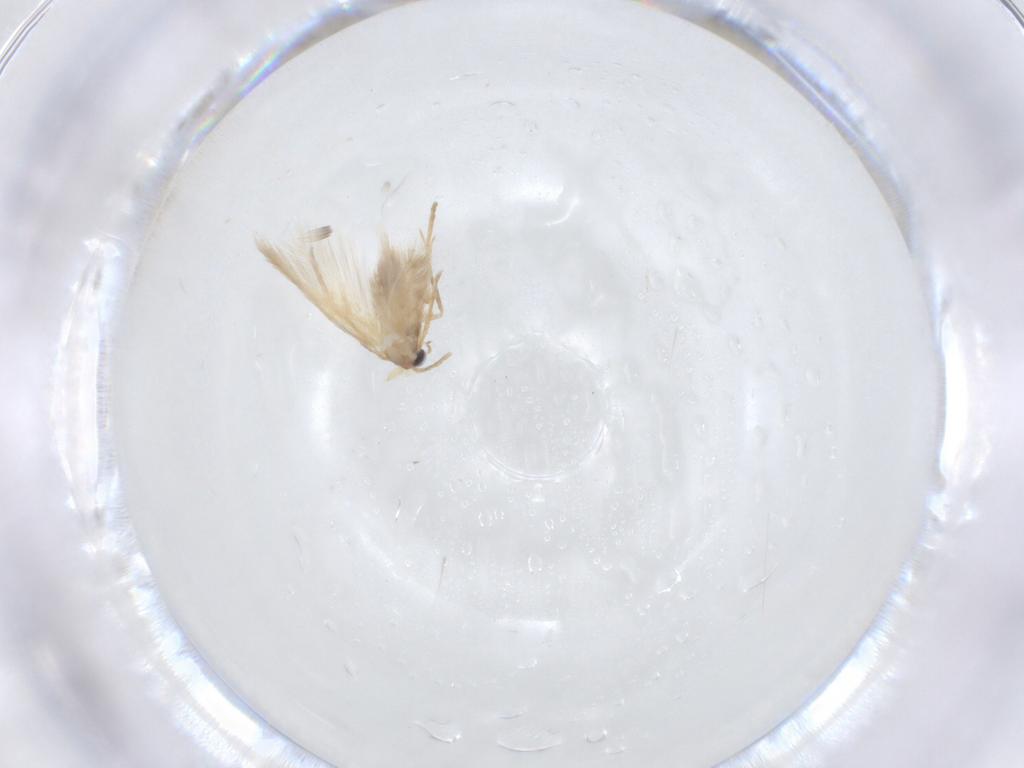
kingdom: Animalia
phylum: Arthropoda
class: Insecta
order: Lepidoptera
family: Nepticulidae
